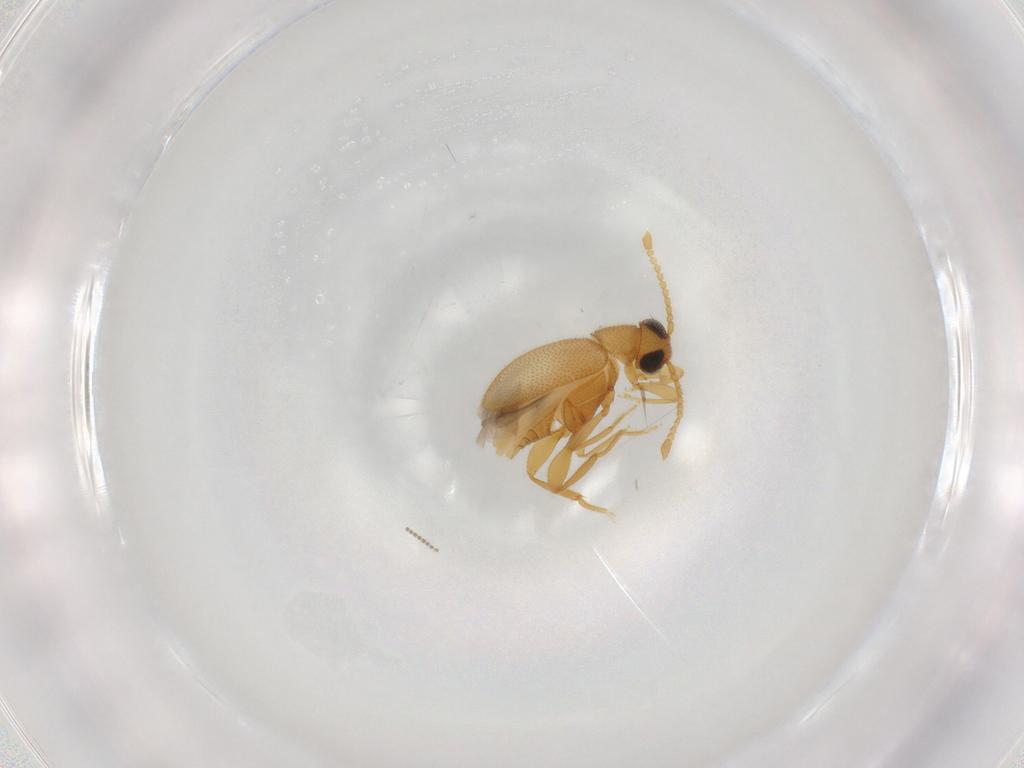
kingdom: Animalia
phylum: Arthropoda
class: Insecta
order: Coleoptera
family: Aderidae
